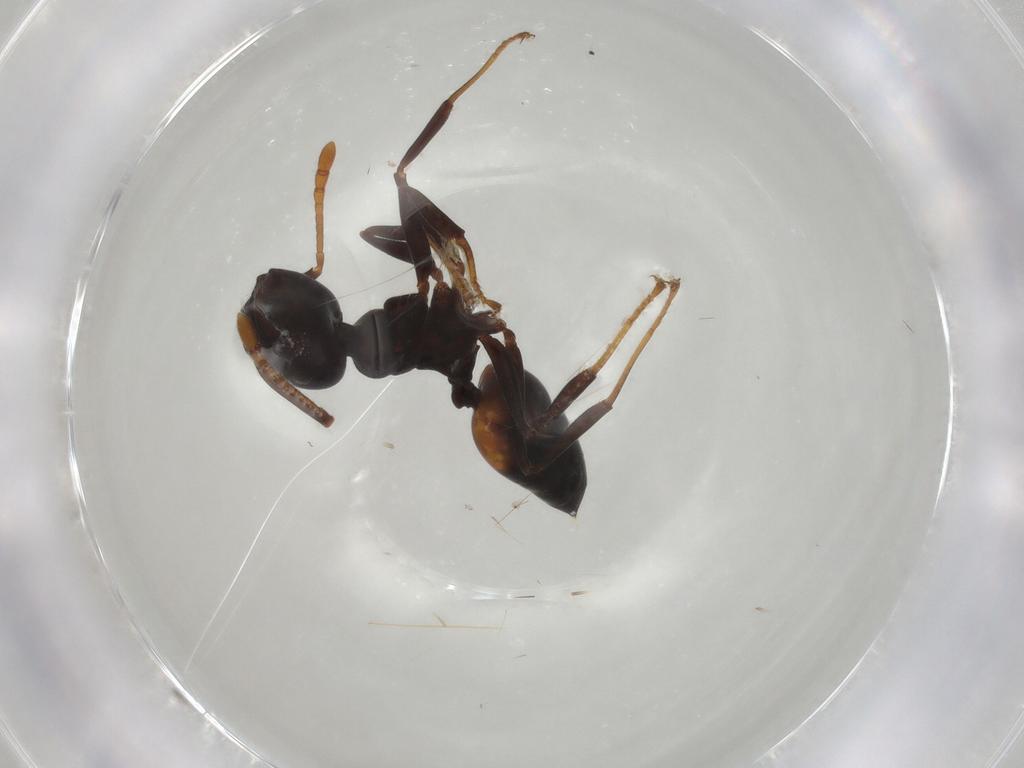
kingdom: Animalia
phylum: Arthropoda
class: Insecta
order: Hymenoptera
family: Formicidae
